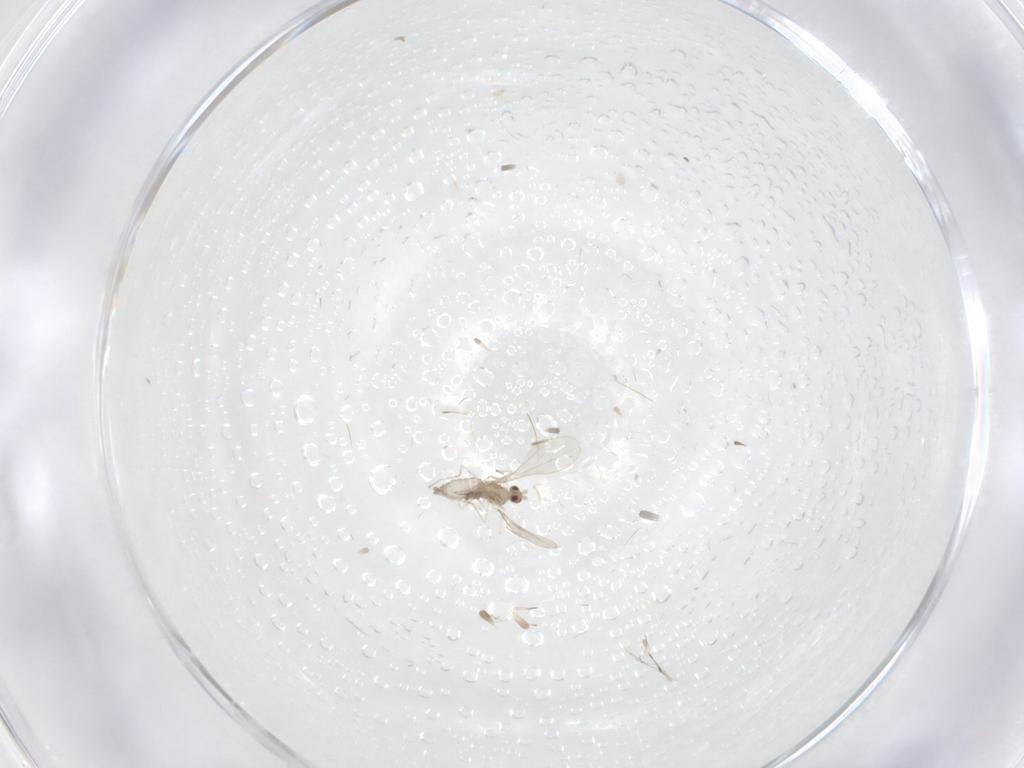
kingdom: Animalia
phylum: Arthropoda
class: Insecta
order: Diptera
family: Cecidomyiidae
